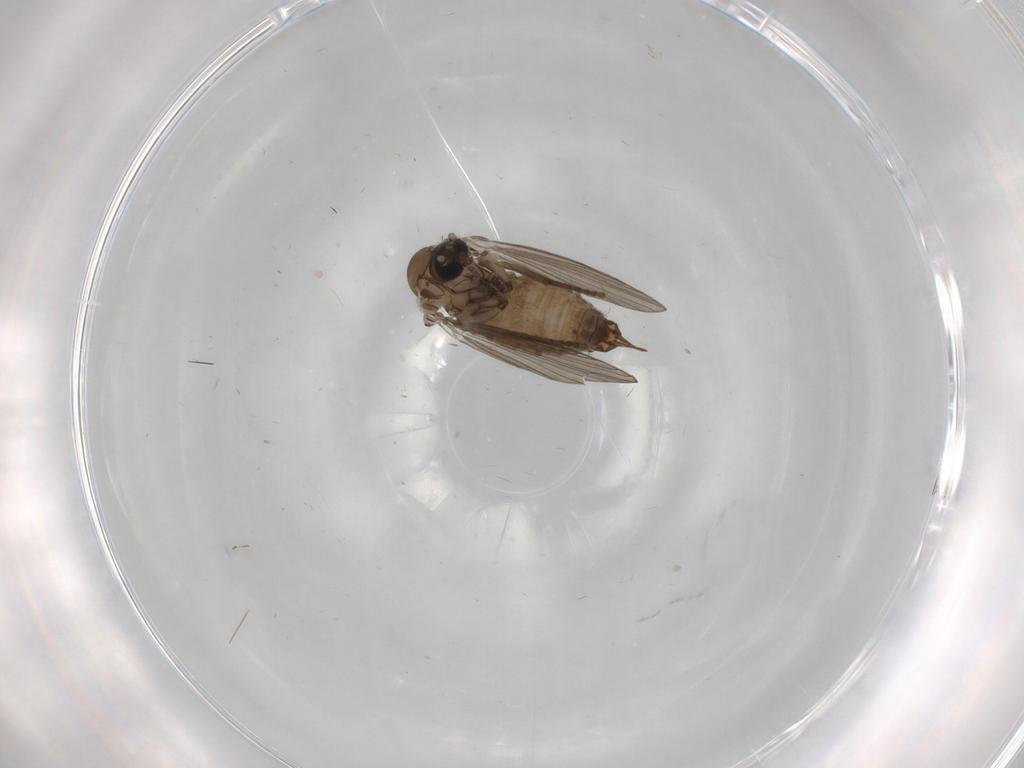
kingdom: Animalia
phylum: Arthropoda
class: Insecta
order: Diptera
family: Psychodidae
